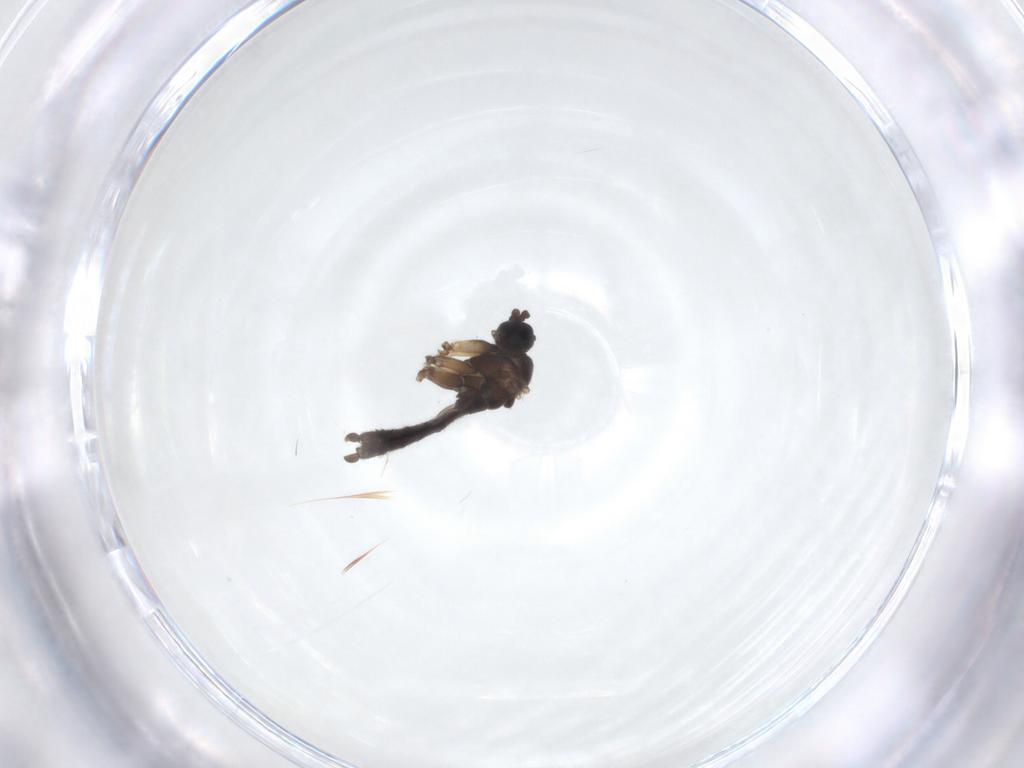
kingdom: Animalia
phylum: Arthropoda
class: Insecta
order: Diptera
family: Sciaridae
